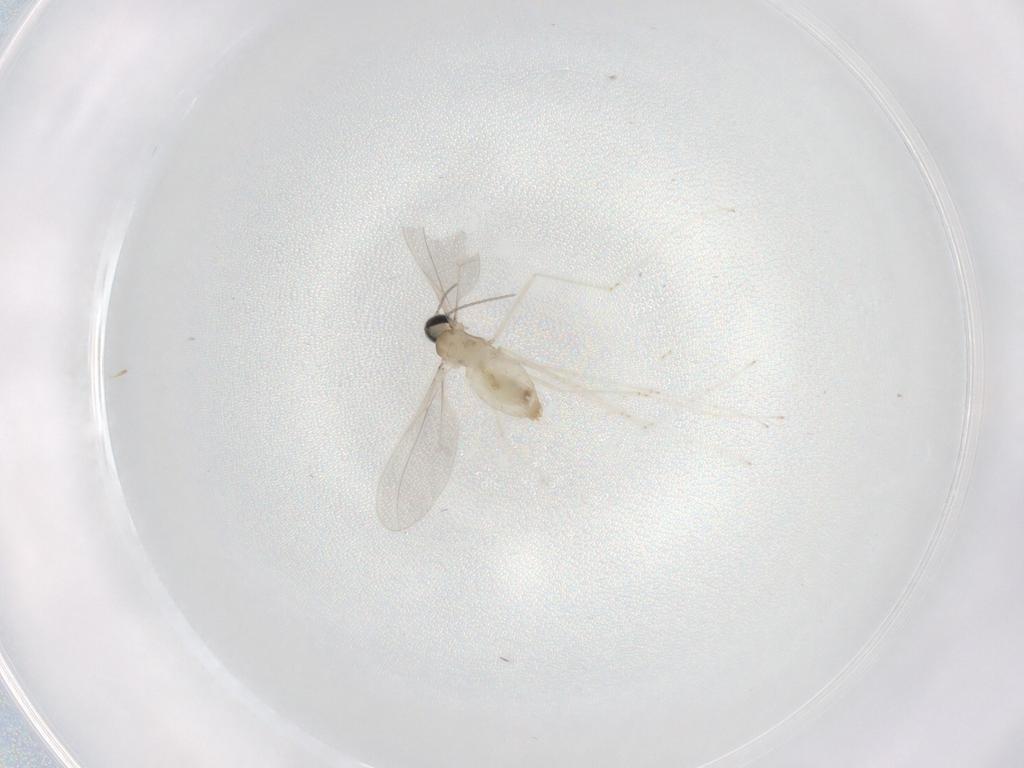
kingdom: Animalia
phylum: Arthropoda
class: Insecta
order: Diptera
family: Cecidomyiidae
